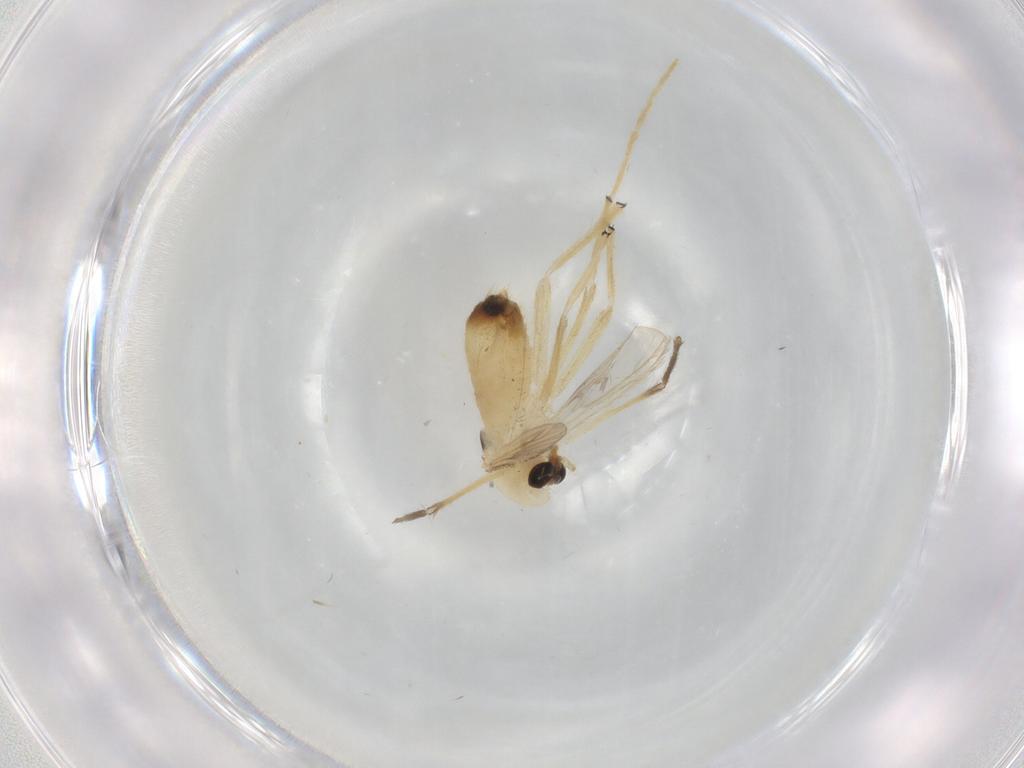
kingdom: Animalia
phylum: Arthropoda
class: Insecta
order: Diptera
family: Chironomidae
